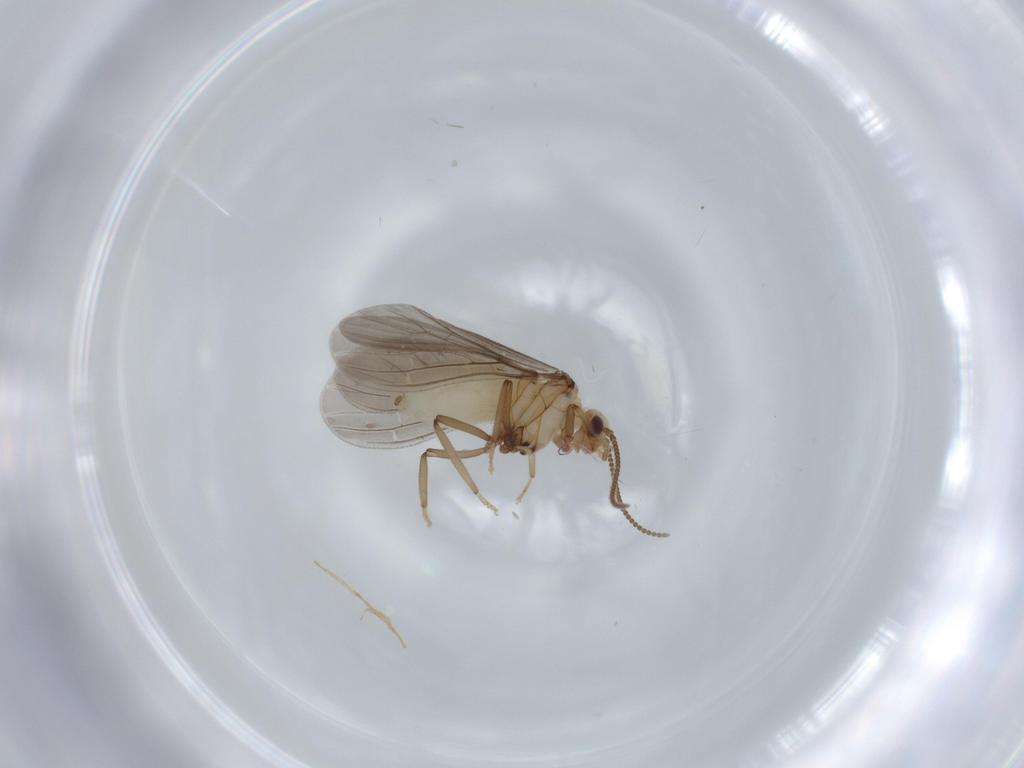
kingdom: Animalia
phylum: Arthropoda
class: Insecta
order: Neuroptera
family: Coniopterygidae
